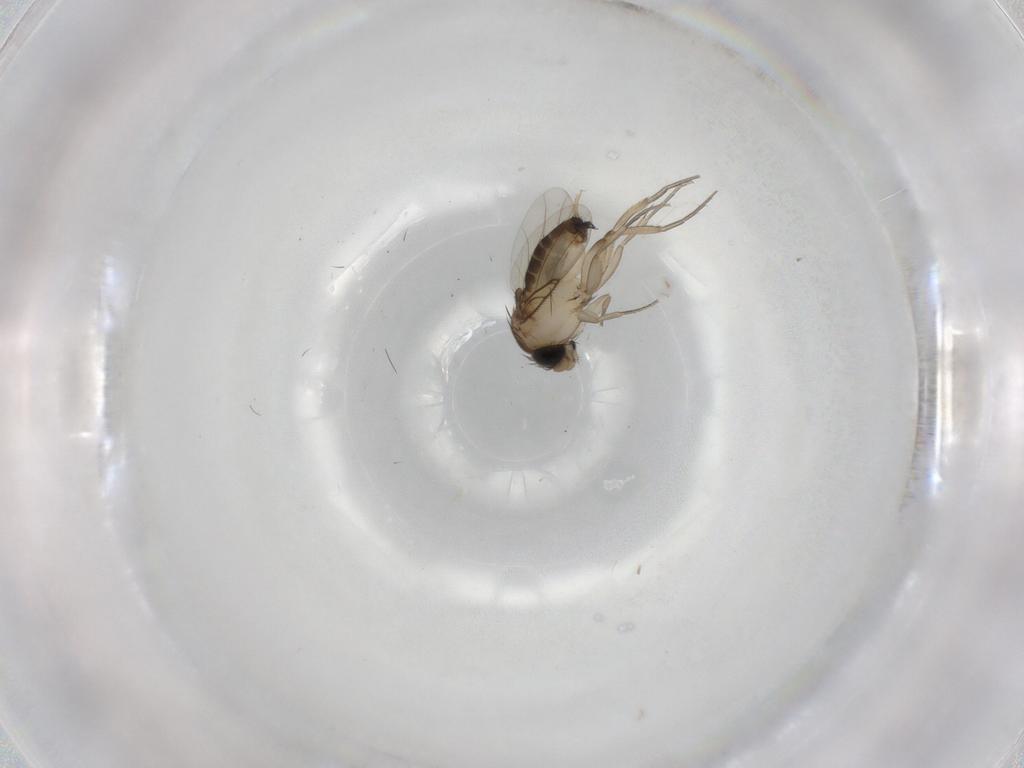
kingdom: Animalia
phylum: Arthropoda
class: Insecta
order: Diptera
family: Phoridae
